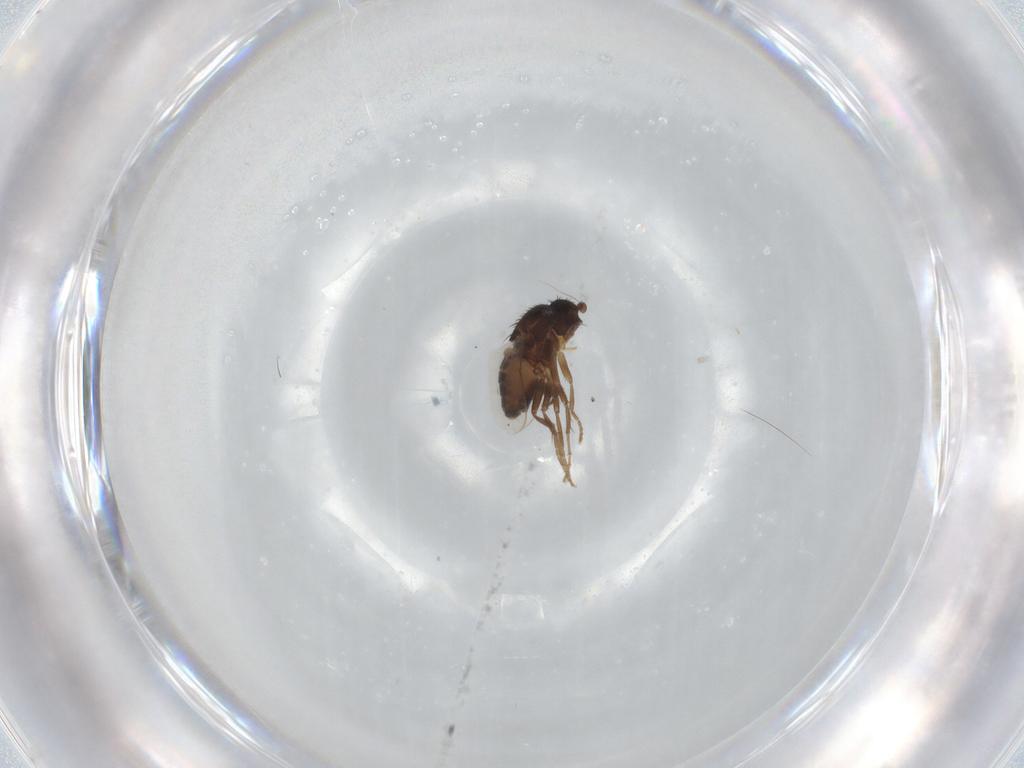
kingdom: Animalia
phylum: Arthropoda
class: Insecta
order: Diptera
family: Sphaeroceridae
